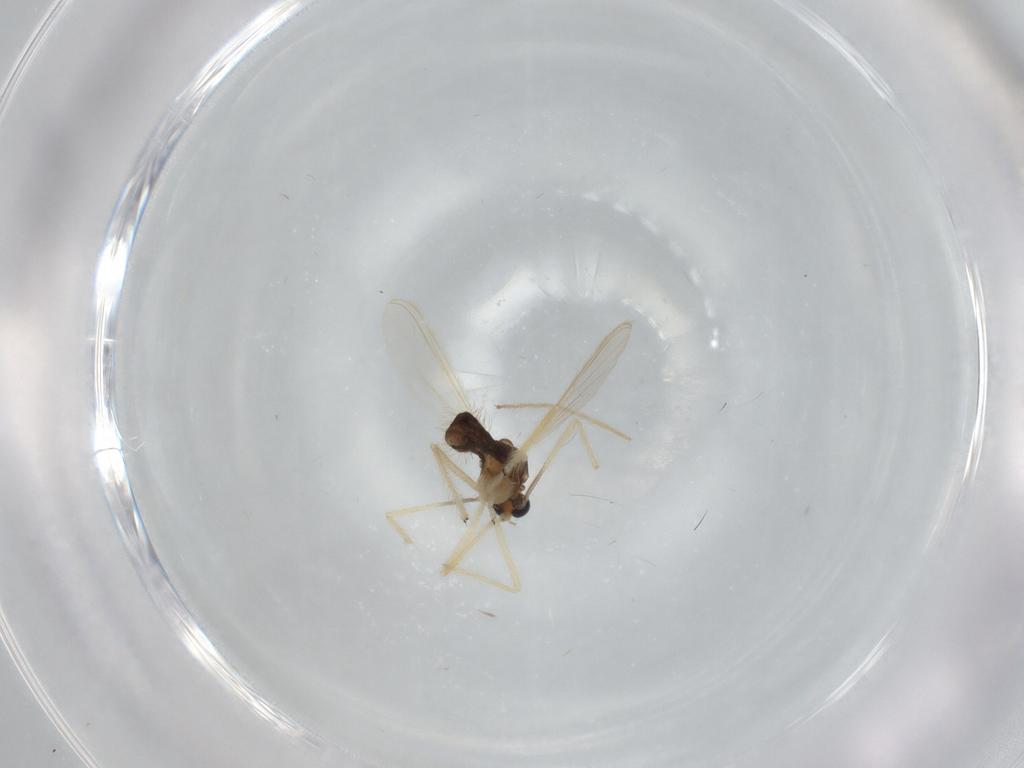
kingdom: Animalia
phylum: Arthropoda
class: Insecta
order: Diptera
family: Chironomidae
